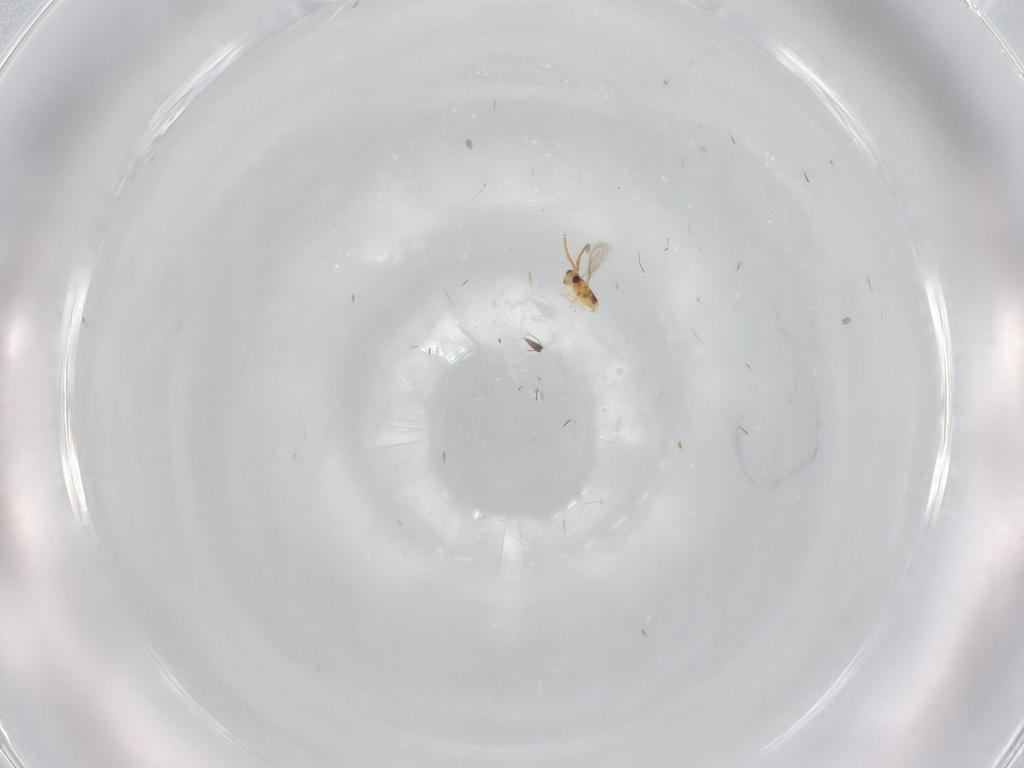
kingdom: Animalia
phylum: Arthropoda
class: Insecta
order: Hymenoptera
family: Aphelinidae
